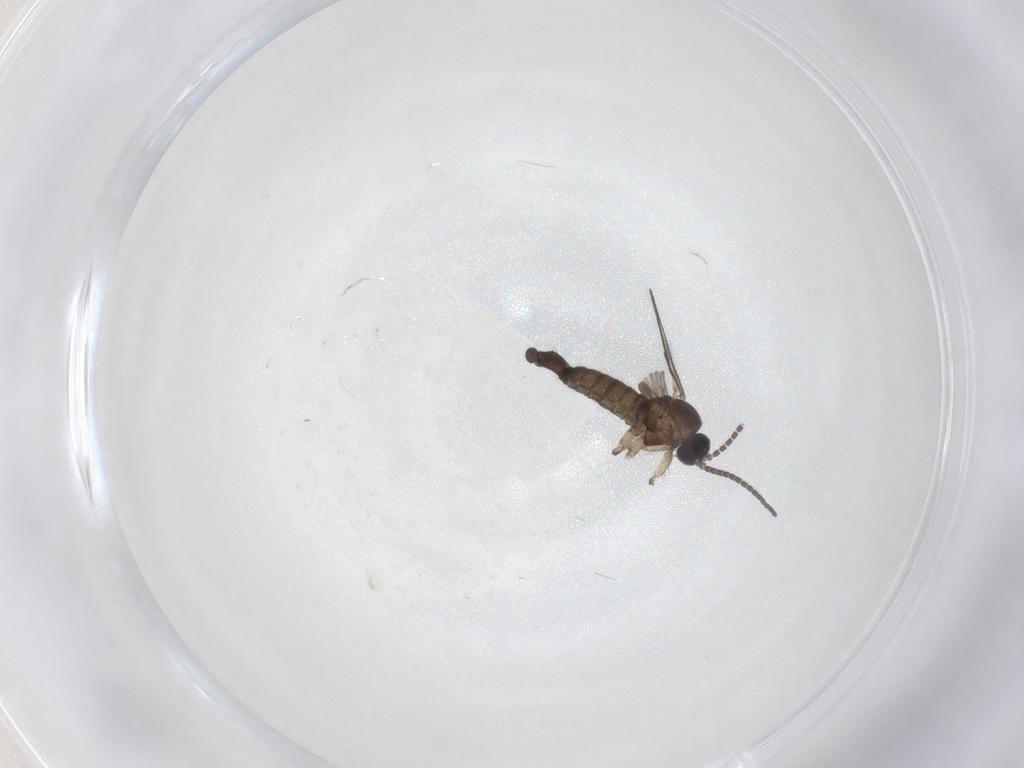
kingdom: Animalia
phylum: Arthropoda
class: Insecta
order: Diptera
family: Sciaridae
